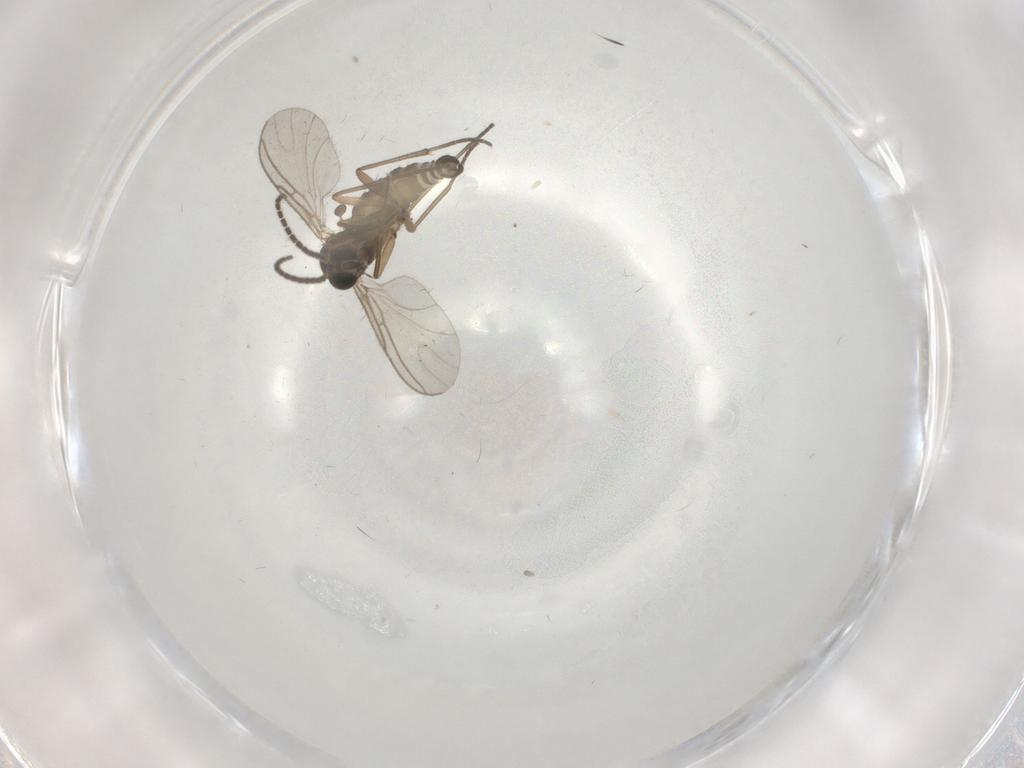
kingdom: Animalia
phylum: Arthropoda
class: Insecta
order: Diptera
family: Sciaridae
